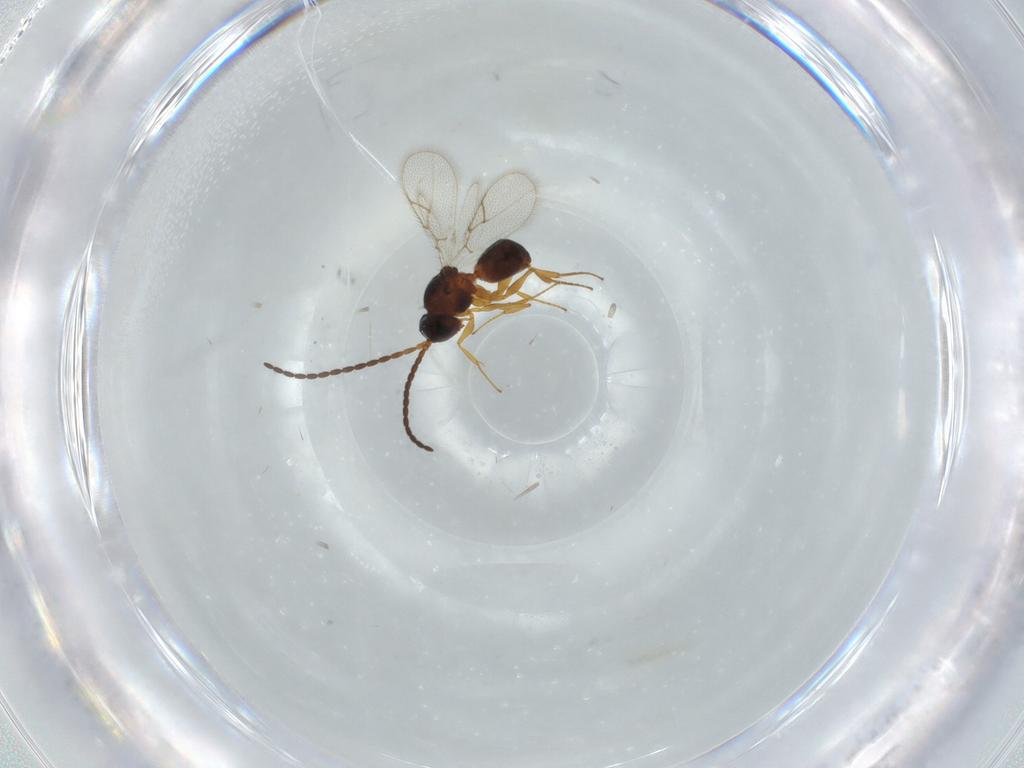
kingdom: Animalia
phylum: Arthropoda
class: Insecta
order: Hymenoptera
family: Figitidae
